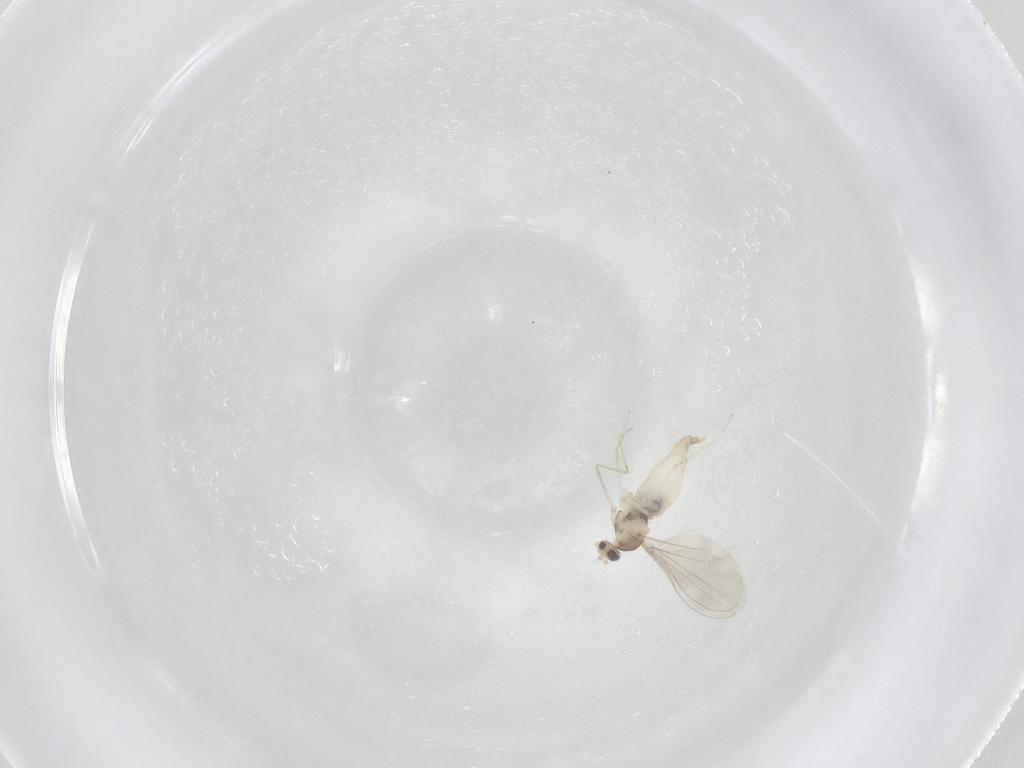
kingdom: Animalia
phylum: Arthropoda
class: Insecta
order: Diptera
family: Cecidomyiidae
